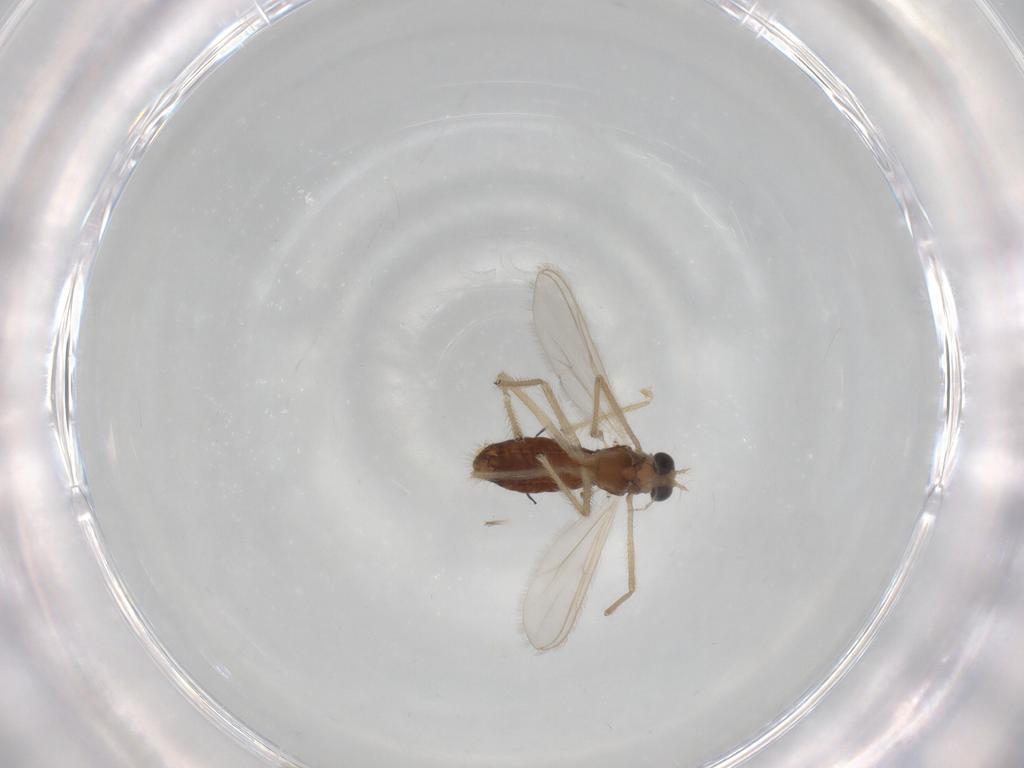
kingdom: Animalia
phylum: Arthropoda
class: Insecta
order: Diptera
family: Chironomidae
